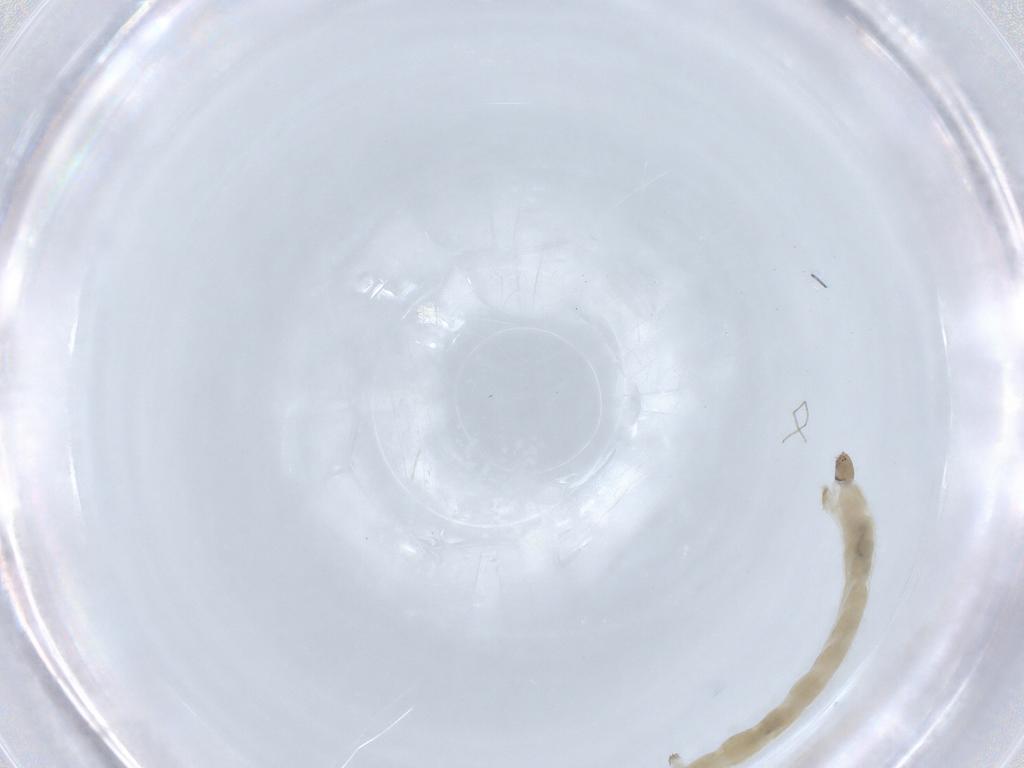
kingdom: Animalia
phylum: Arthropoda
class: Insecta
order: Diptera
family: Chironomidae
